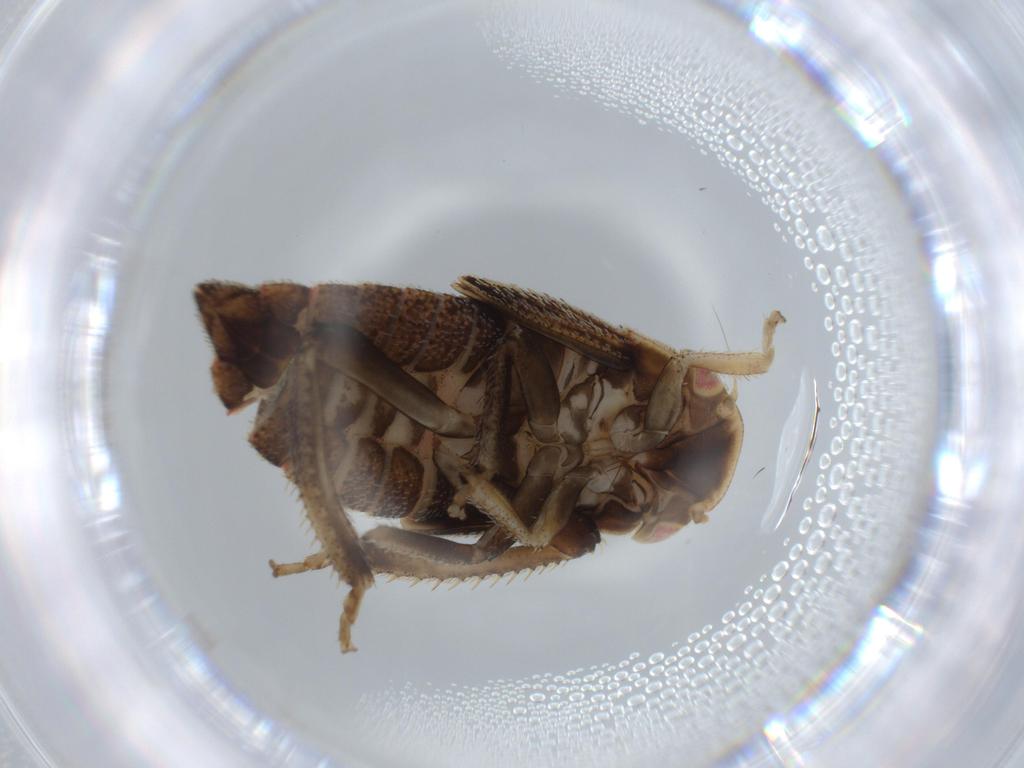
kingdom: Animalia
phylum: Arthropoda
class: Insecta
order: Hemiptera
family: Cicadellidae
